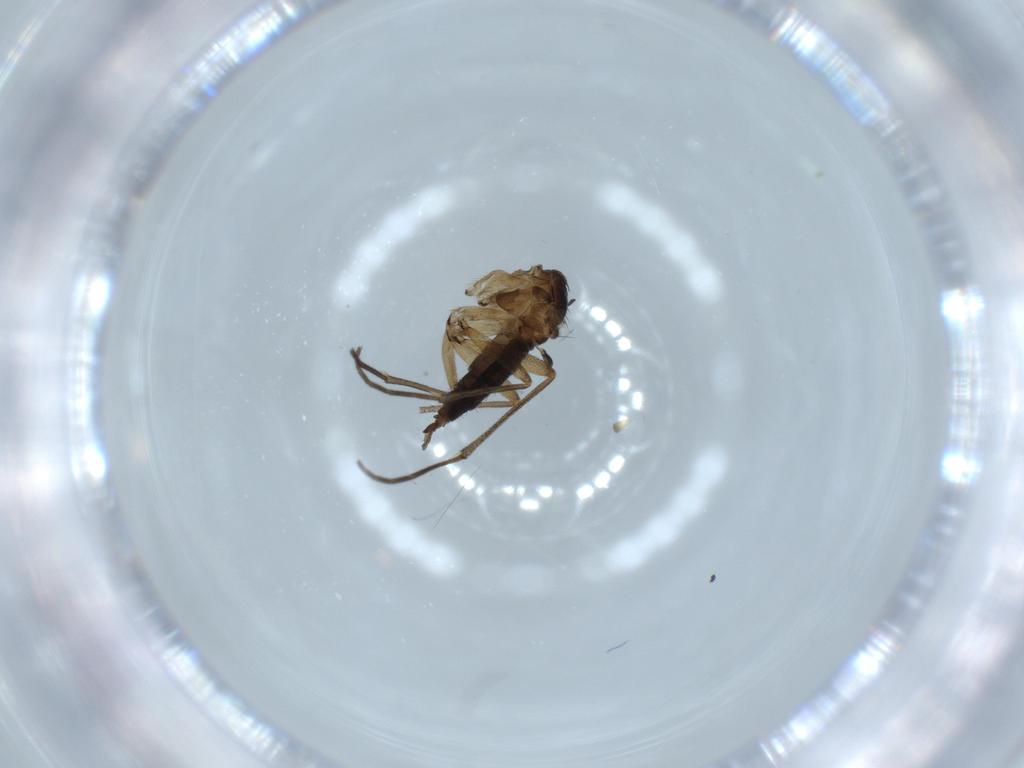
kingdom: Animalia
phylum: Arthropoda
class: Insecta
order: Diptera
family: Sciaridae
